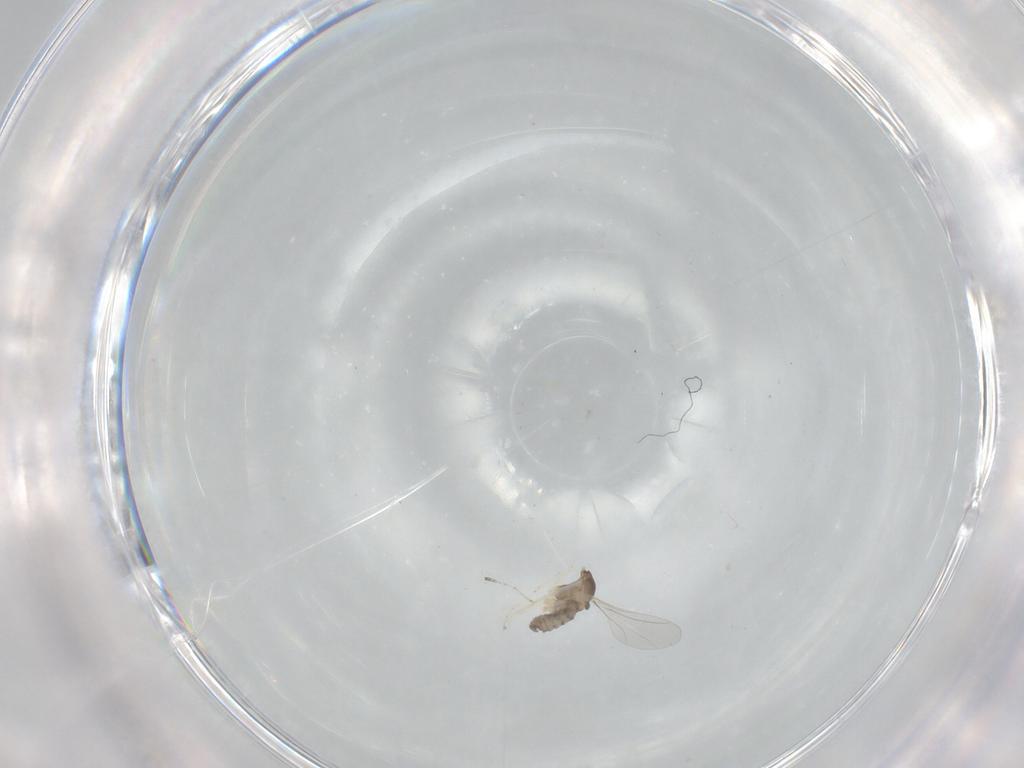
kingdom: Animalia
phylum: Arthropoda
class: Insecta
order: Diptera
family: Cecidomyiidae
